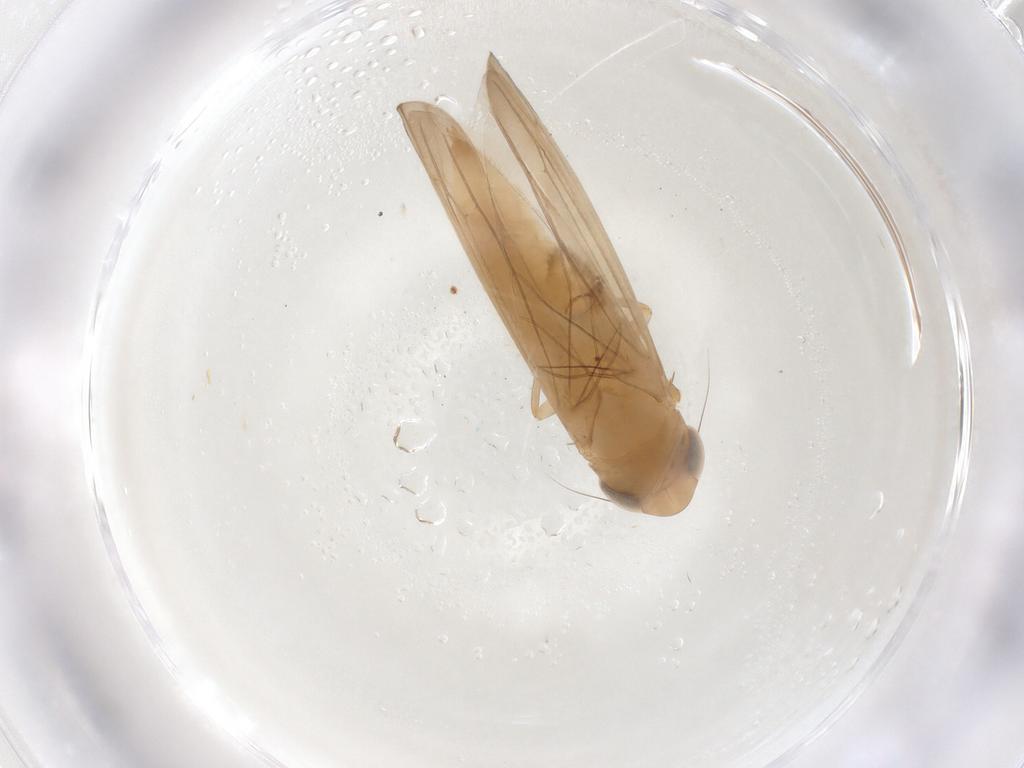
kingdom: Animalia
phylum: Arthropoda
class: Insecta
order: Hemiptera
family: Cicadellidae
